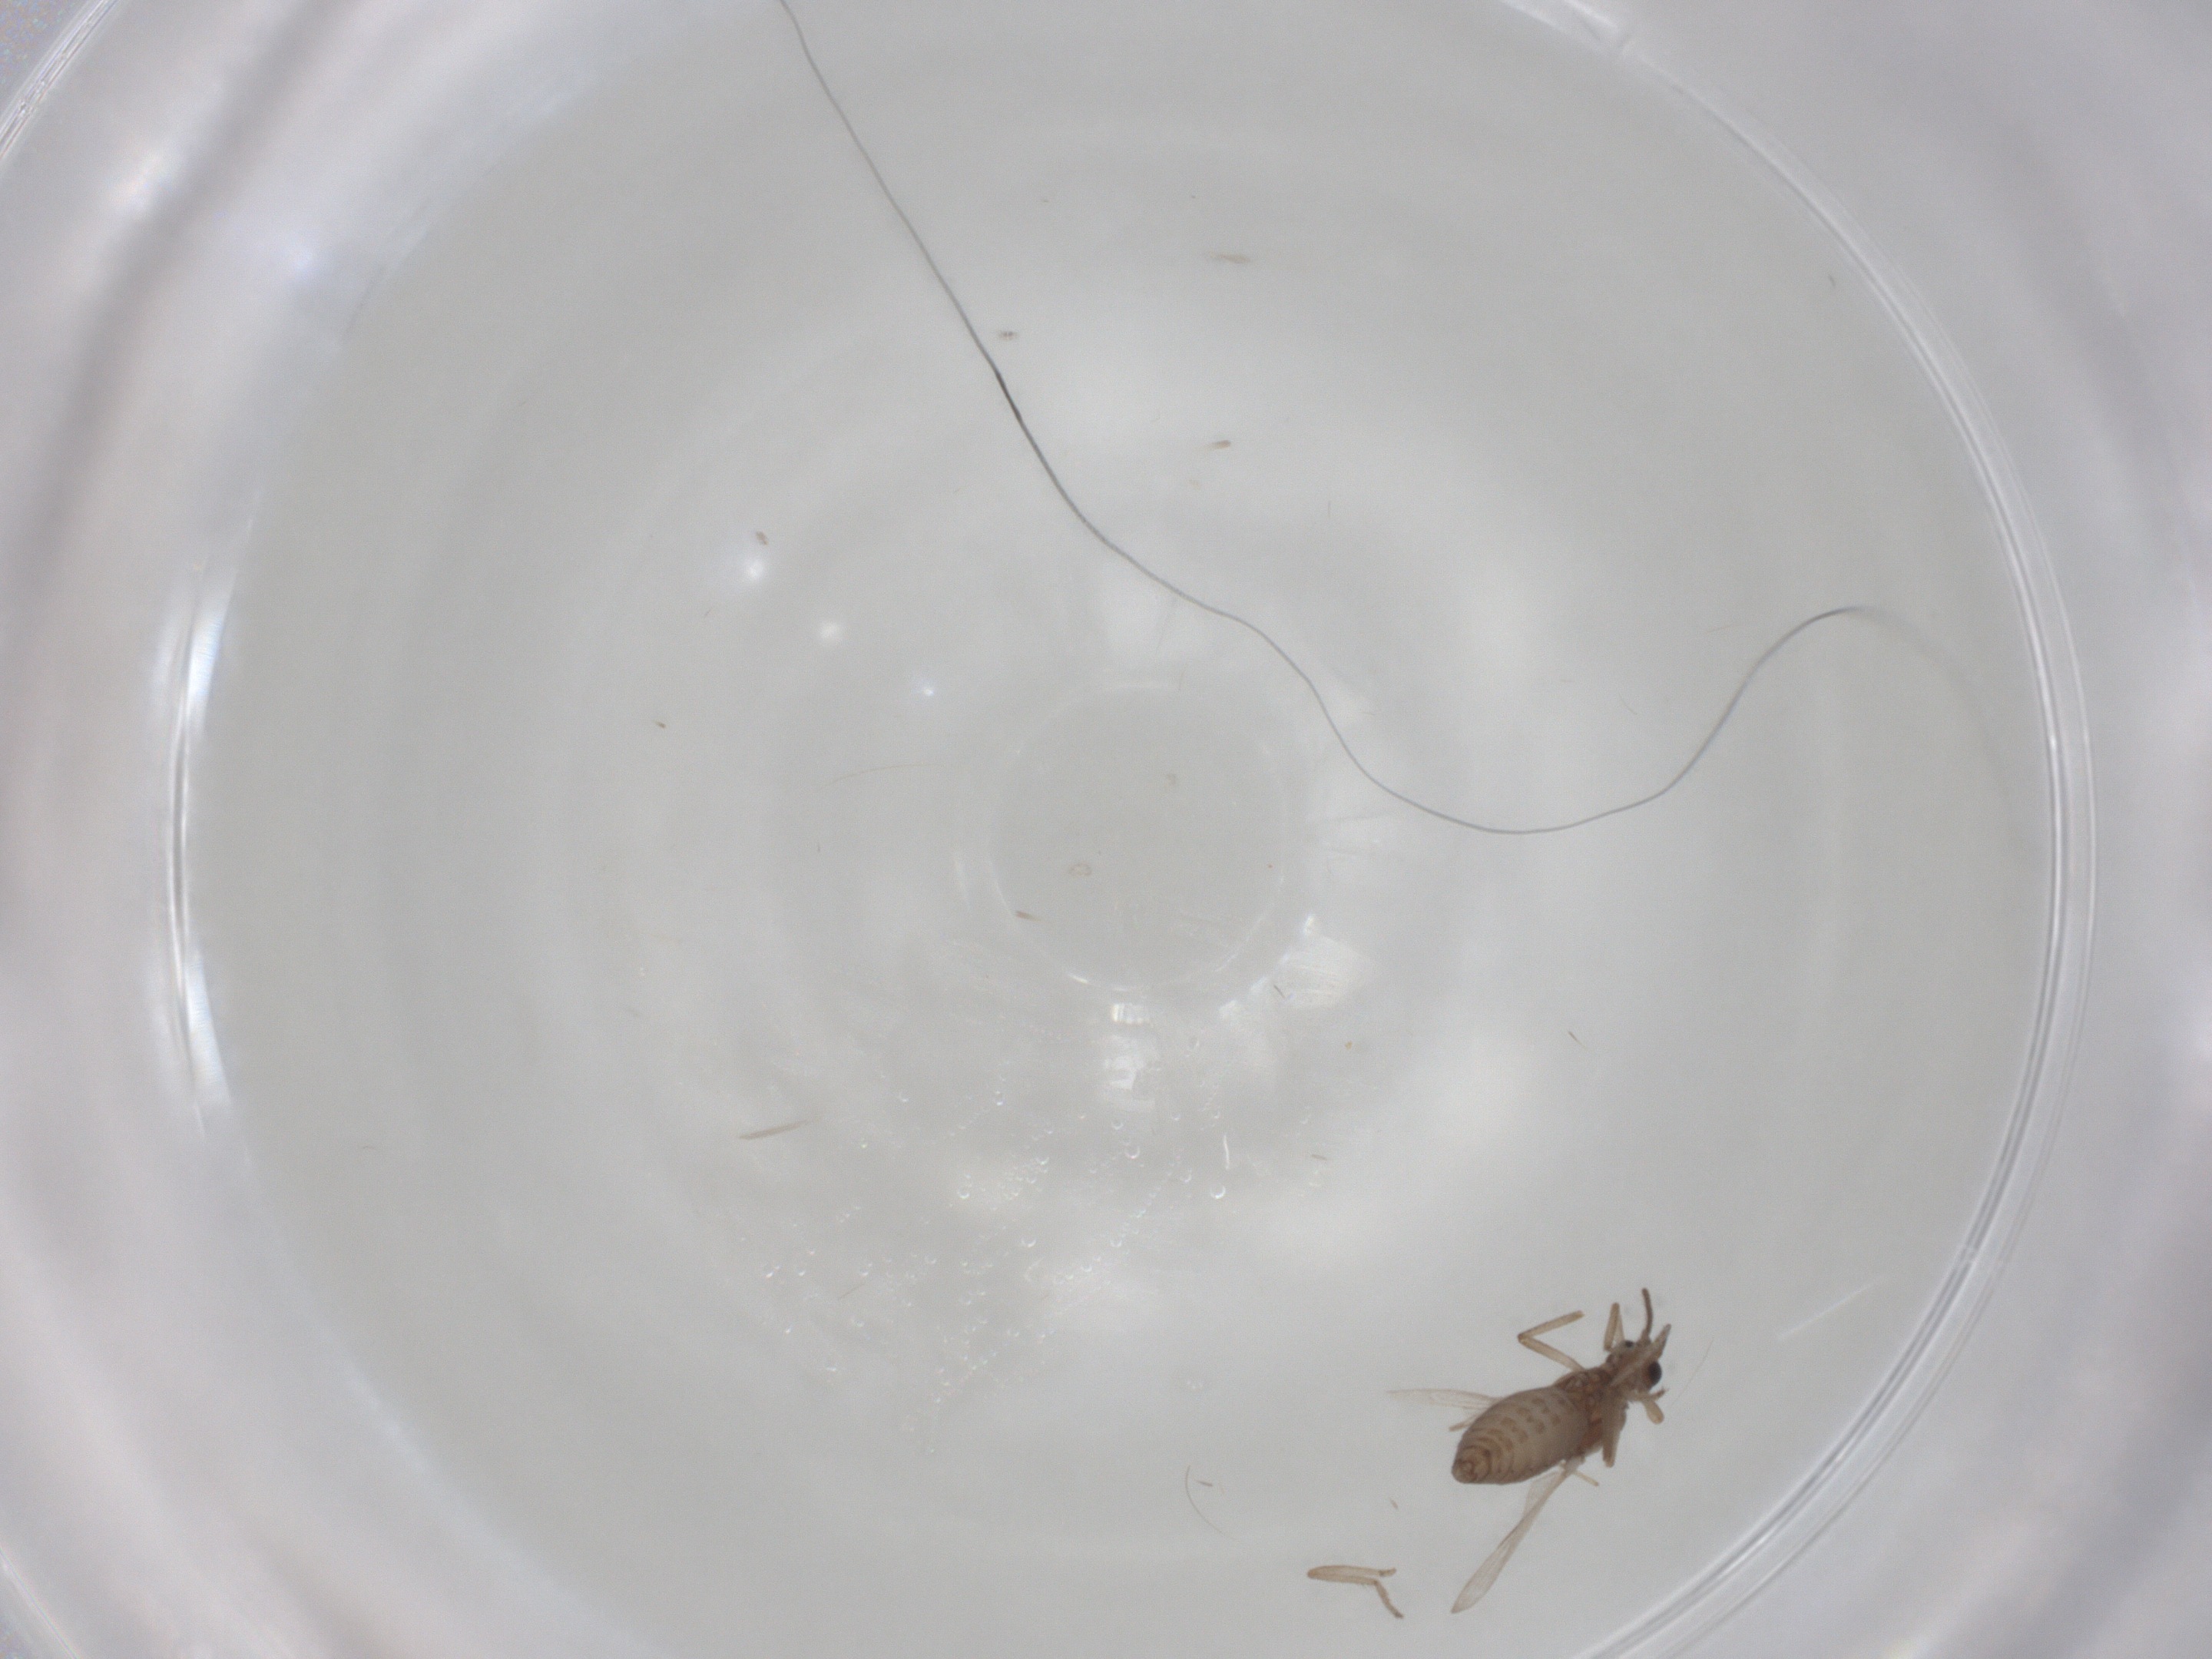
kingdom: Animalia
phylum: Arthropoda
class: Insecta
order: Diptera
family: Ceratopogonidae
